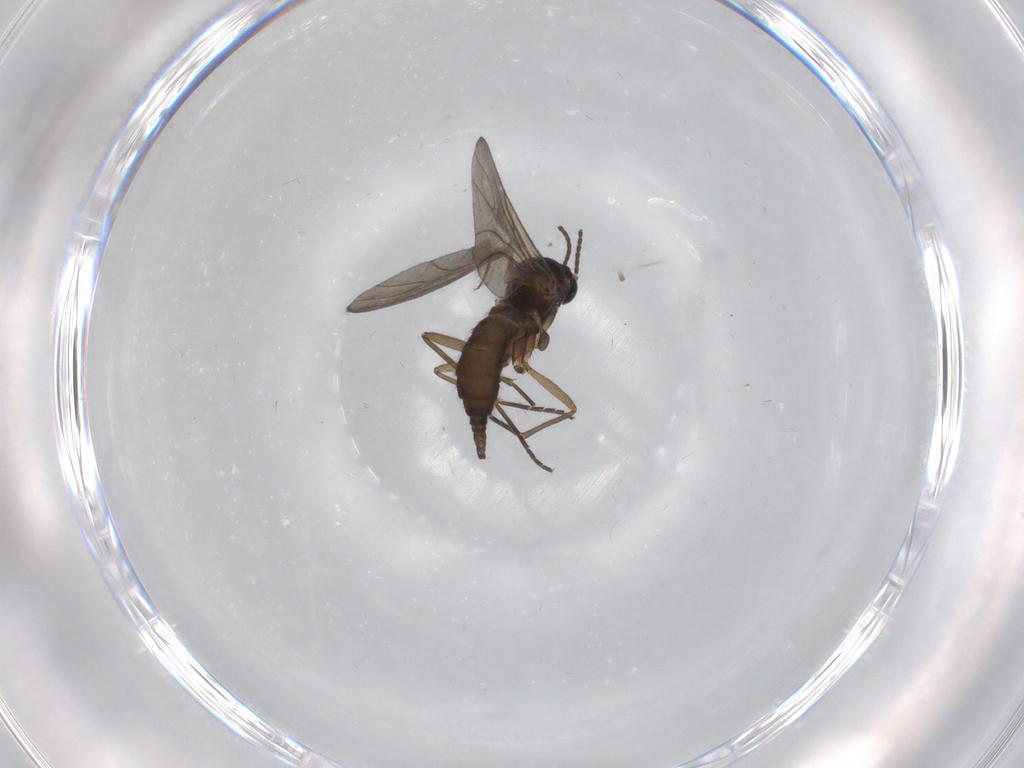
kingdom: Animalia
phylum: Arthropoda
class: Insecta
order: Diptera
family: Sciaridae
